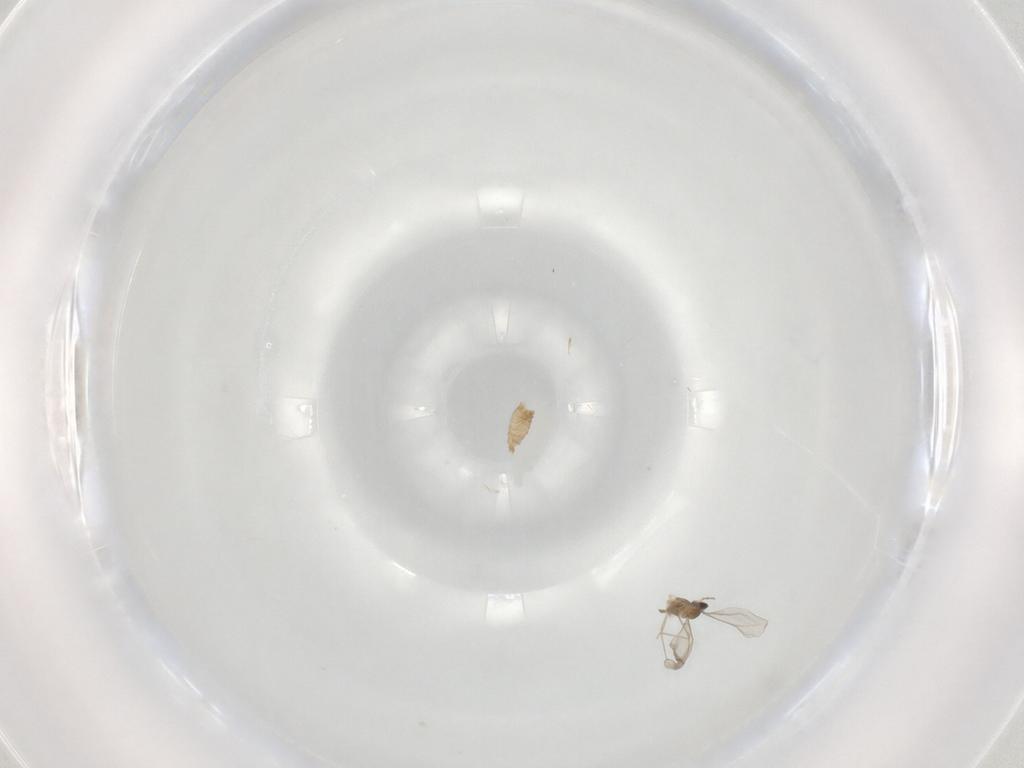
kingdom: Animalia
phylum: Arthropoda
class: Insecta
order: Diptera
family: Cecidomyiidae
